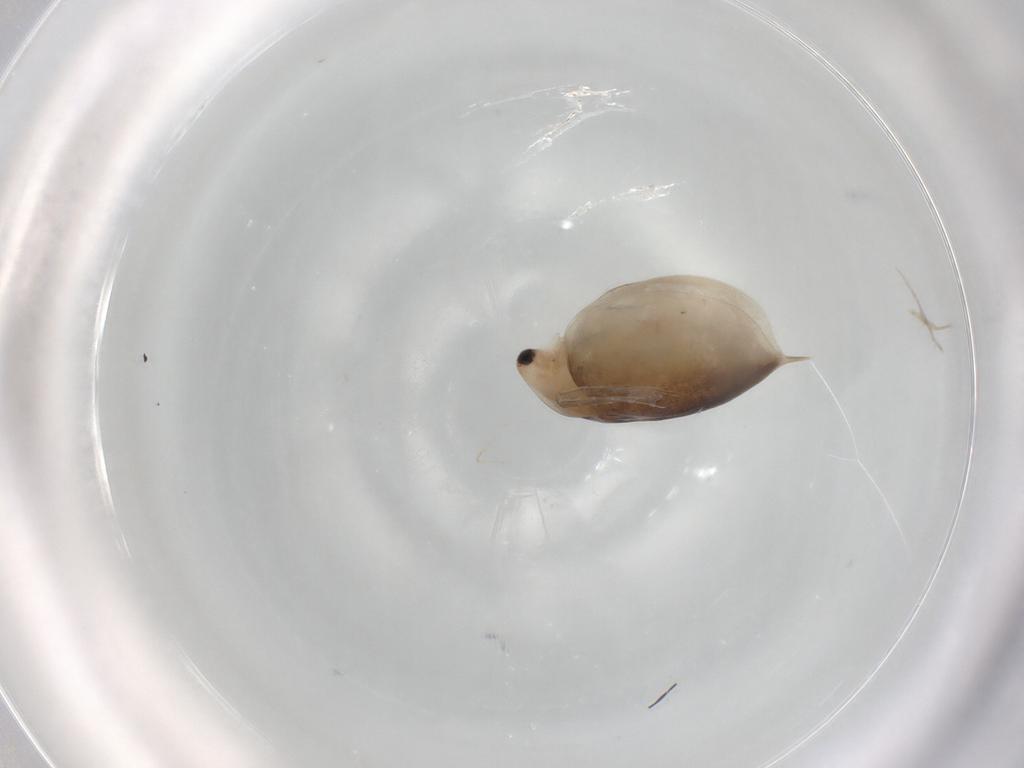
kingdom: Animalia
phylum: Arthropoda
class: Branchiopoda
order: Diplostraca
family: Daphniidae
